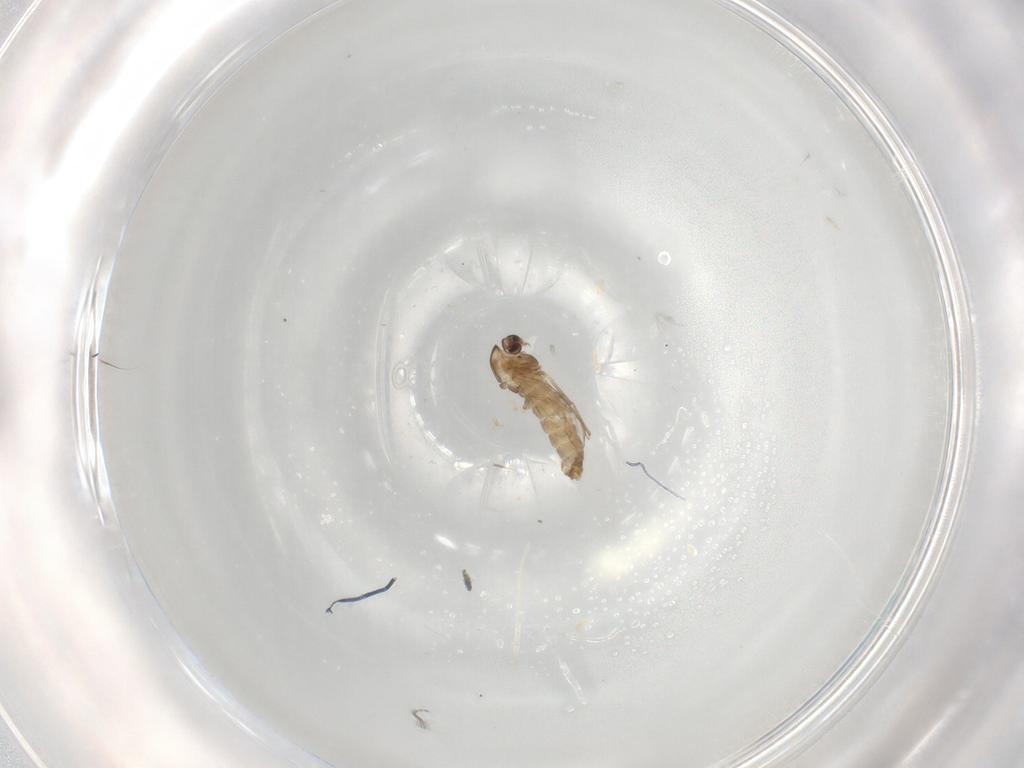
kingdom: Animalia
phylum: Arthropoda
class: Insecta
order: Diptera
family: Chironomidae
